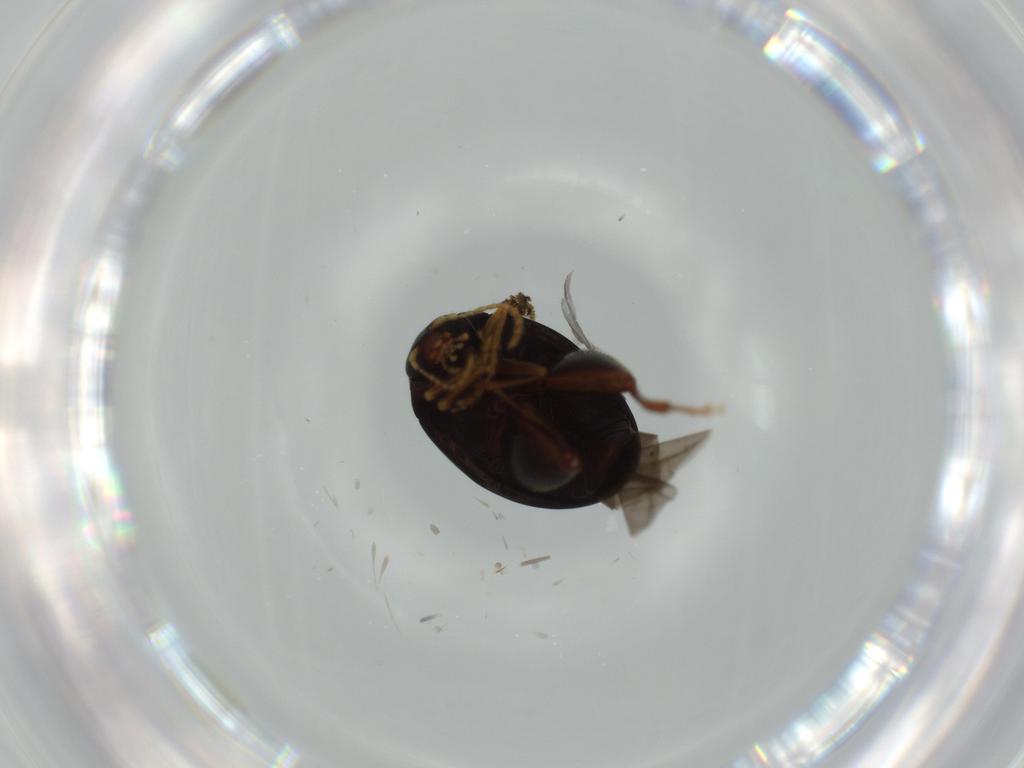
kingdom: Animalia
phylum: Arthropoda
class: Insecta
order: Coleoptera
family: Chrysomelidae
